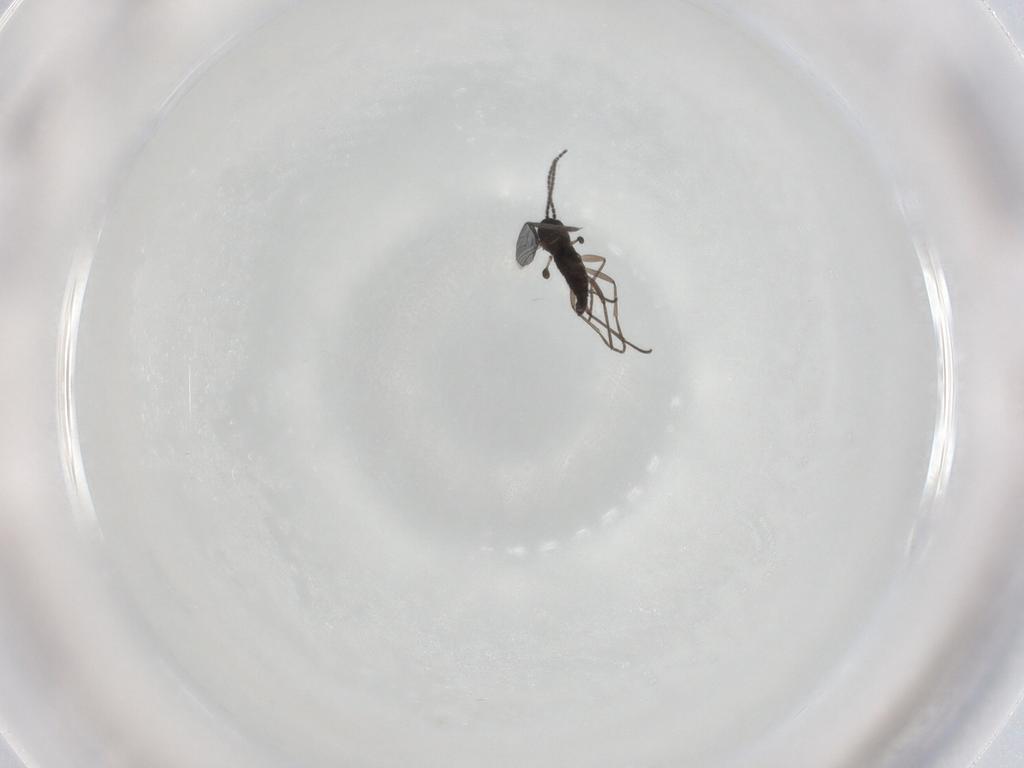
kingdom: Animalia
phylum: Arthropoda
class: Insecta
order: Diptera
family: Sciaridae
